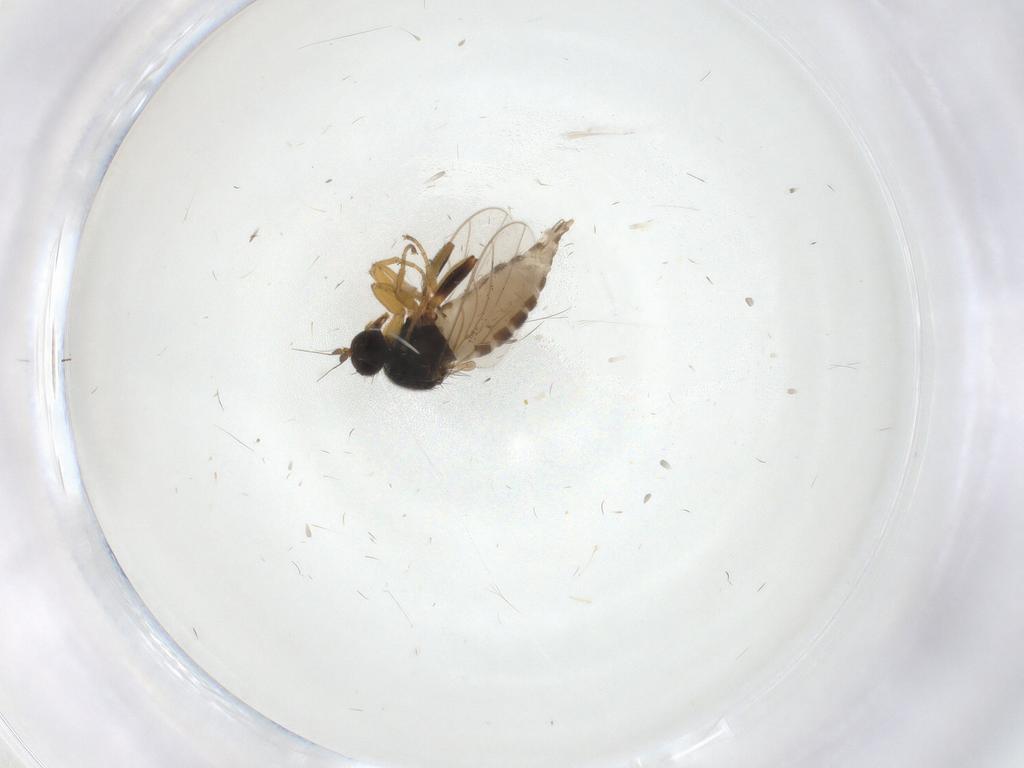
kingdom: Animalia
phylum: Arthropoda
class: Insecta
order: Diptera
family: Hybotidae
